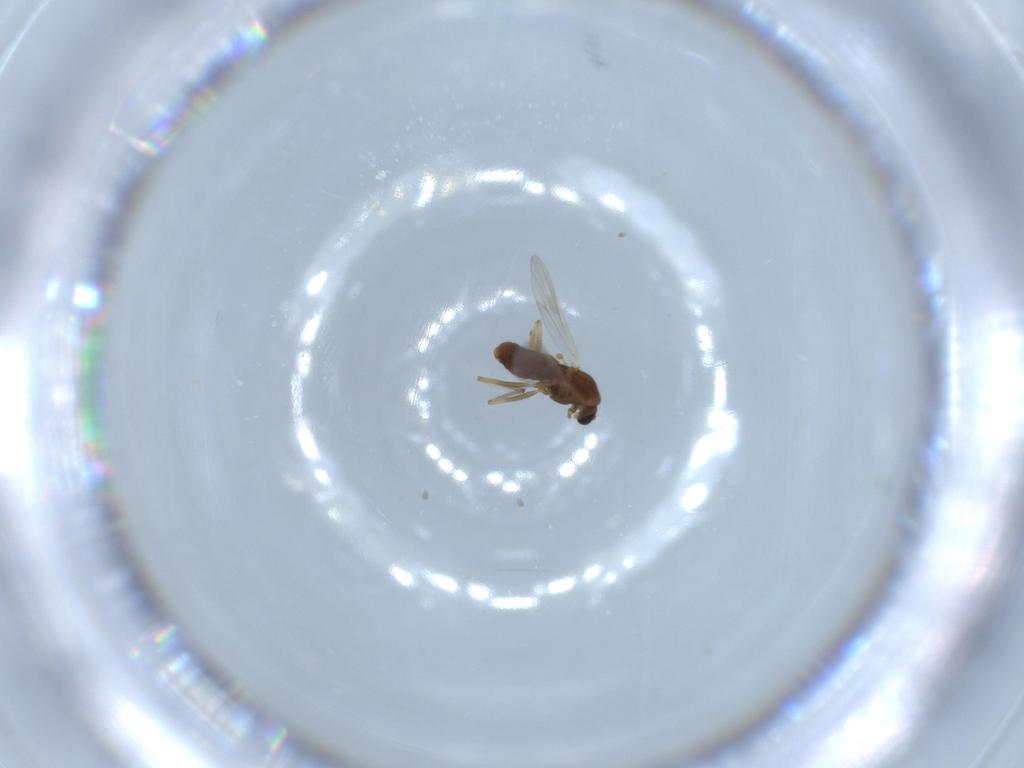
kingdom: Animalia
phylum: Arthropoda
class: Insecta
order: Diptera
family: Chironomidae
